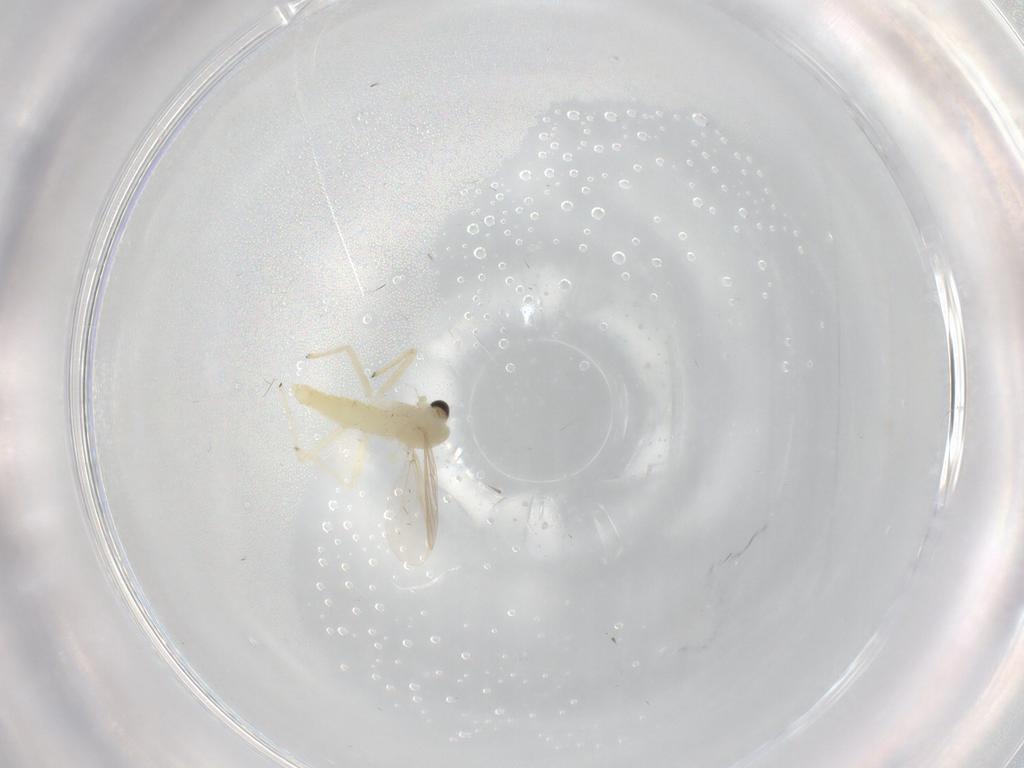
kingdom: Animalia
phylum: Arthropoda
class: Insecta
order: Diptera
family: Chironomidae
